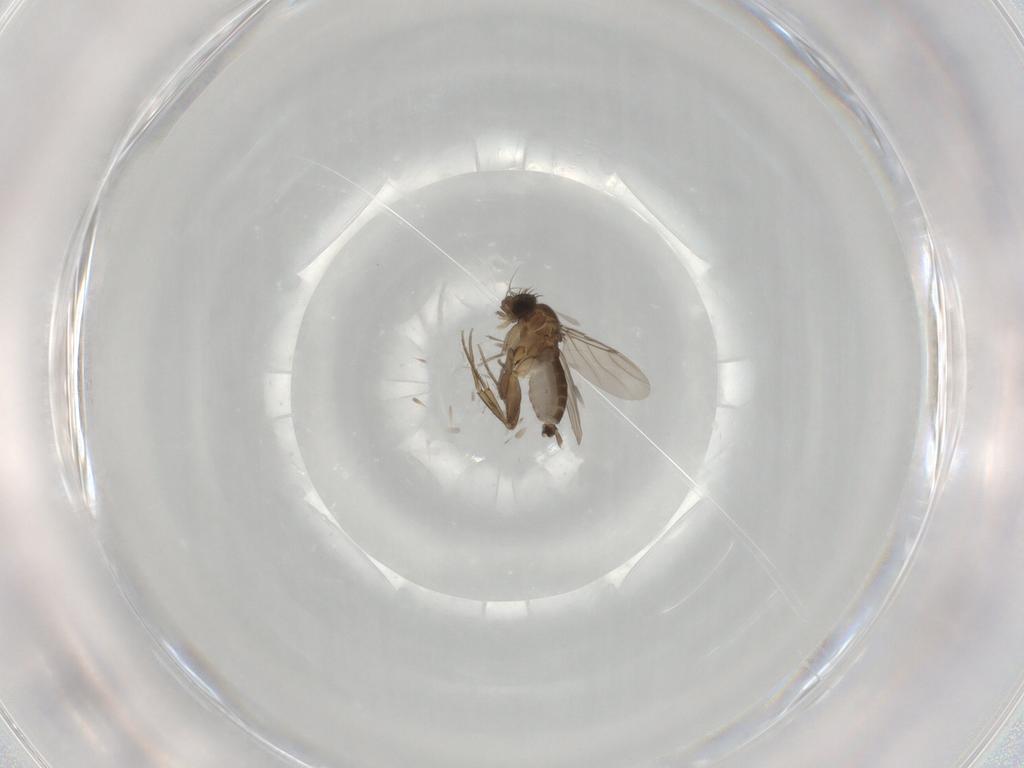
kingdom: Animalia
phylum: Arthropoda
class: Insecta
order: Diptera
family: Phoridae
